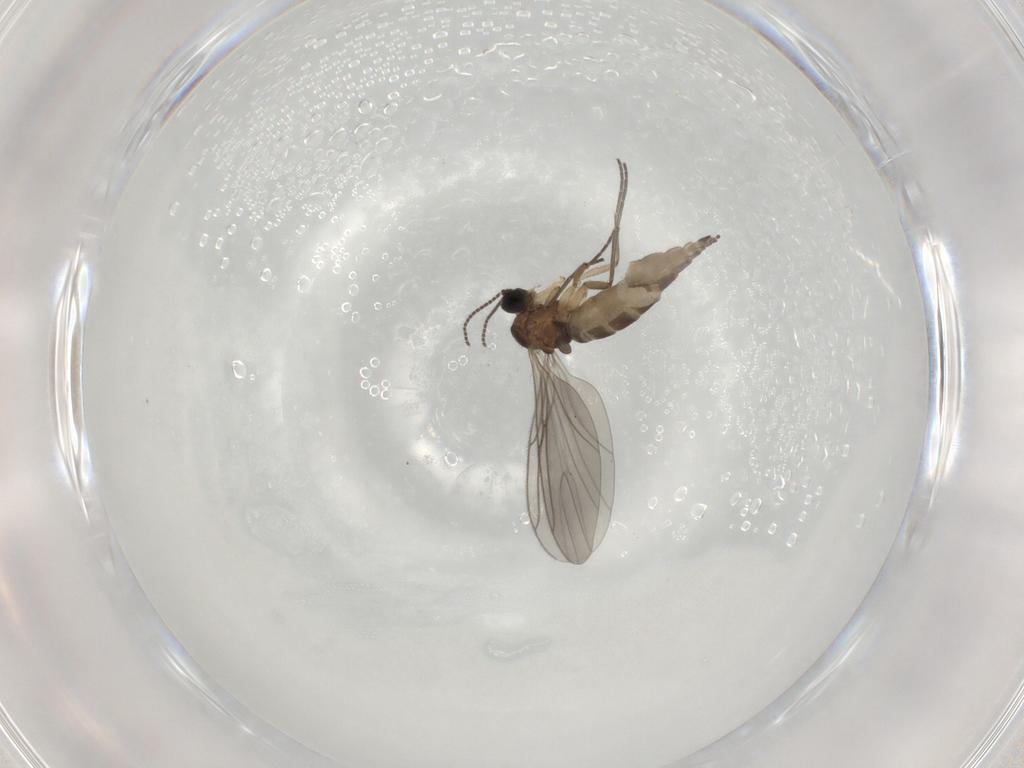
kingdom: Animalia
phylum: Arthropoda
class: Insecta
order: Diptera
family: Sciaridae
